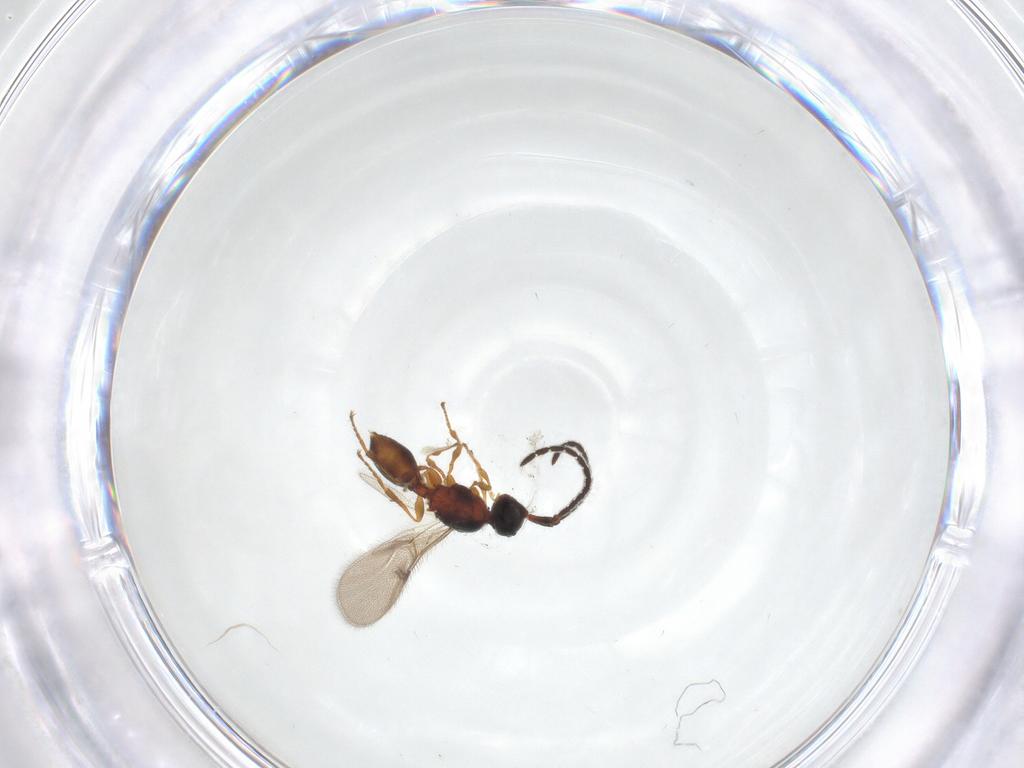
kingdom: Animalia
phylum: Arthropoda
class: Insecta
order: Hymenoptera
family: Diapriidae
